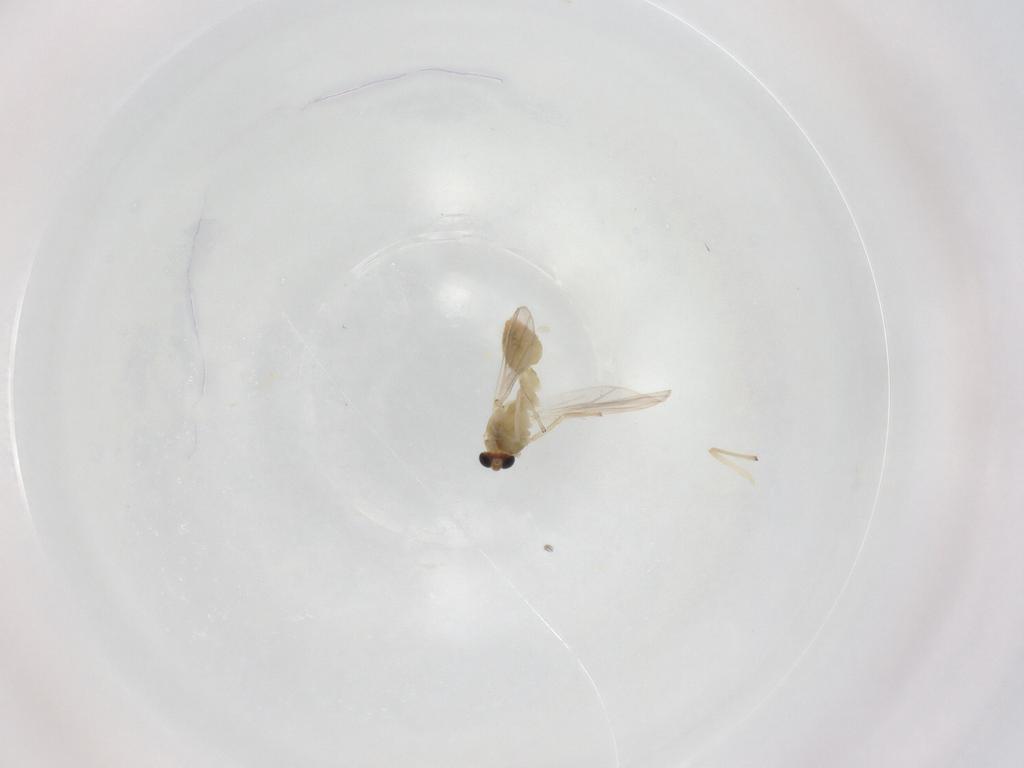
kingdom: Animalia
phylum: Arthropoda
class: Insecta
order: Diptera
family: Chironomidae
